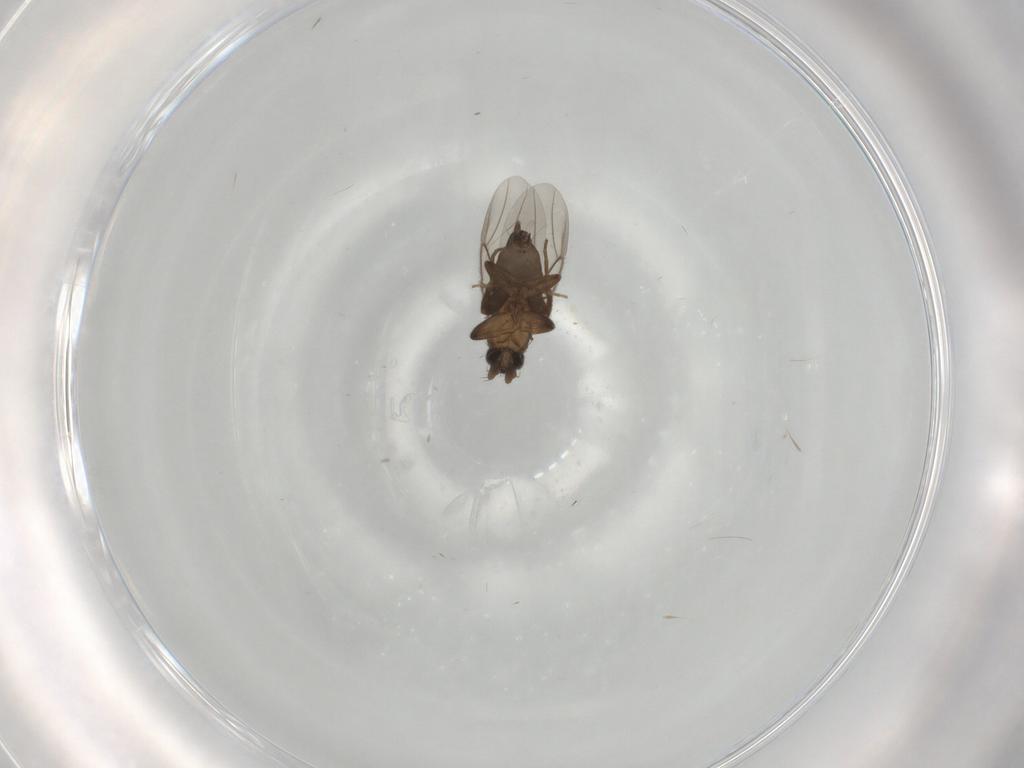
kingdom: Animalia
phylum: Arthropoda
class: Insecta
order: Diptera
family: Phoridae
